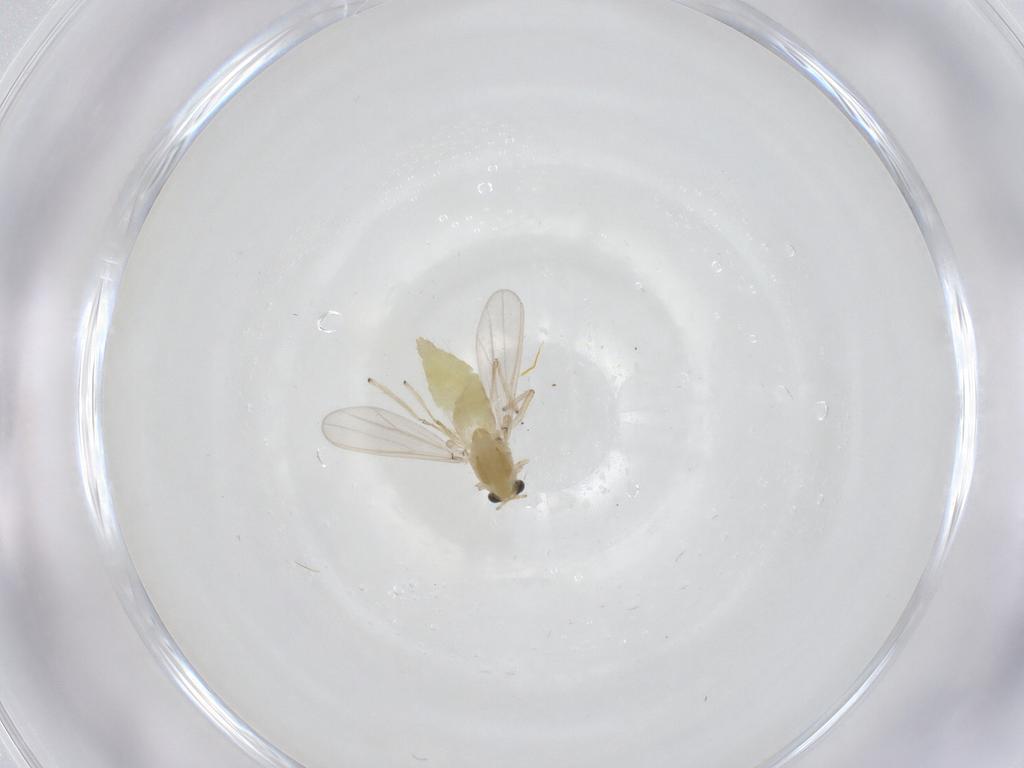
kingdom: Animalia
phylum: Arthropoda
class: Insecta
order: Diptera
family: Chironomidae
